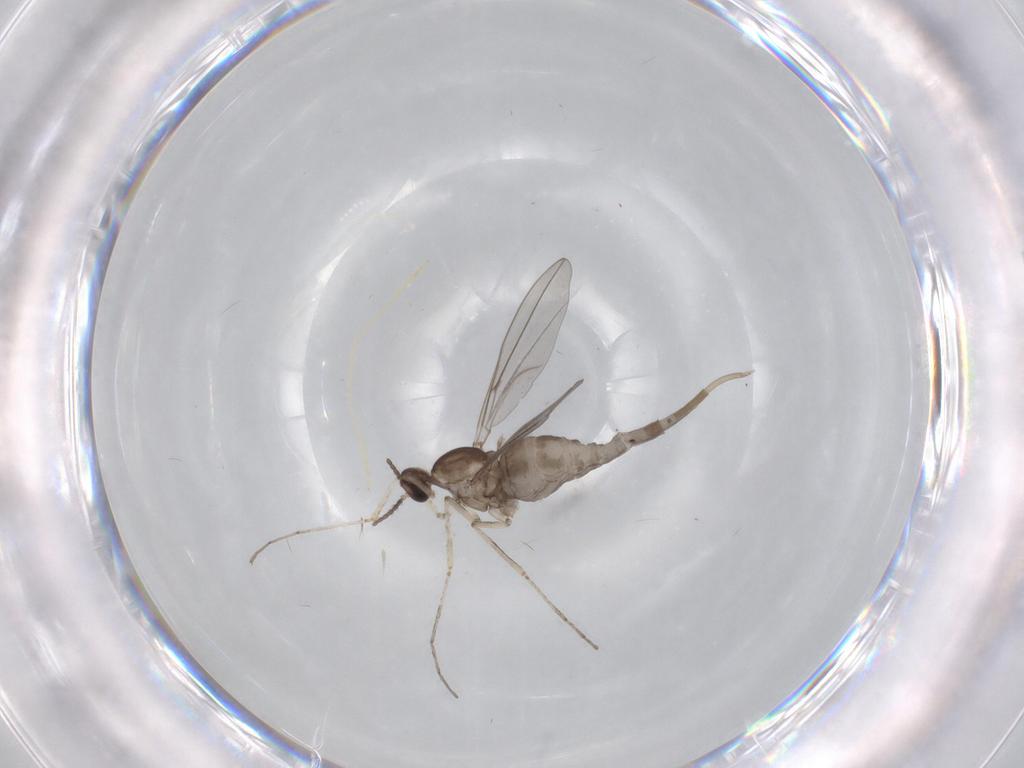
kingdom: Animalia
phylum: Arthropoda
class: Insecta
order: Diptera
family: Cecidomyiidae
